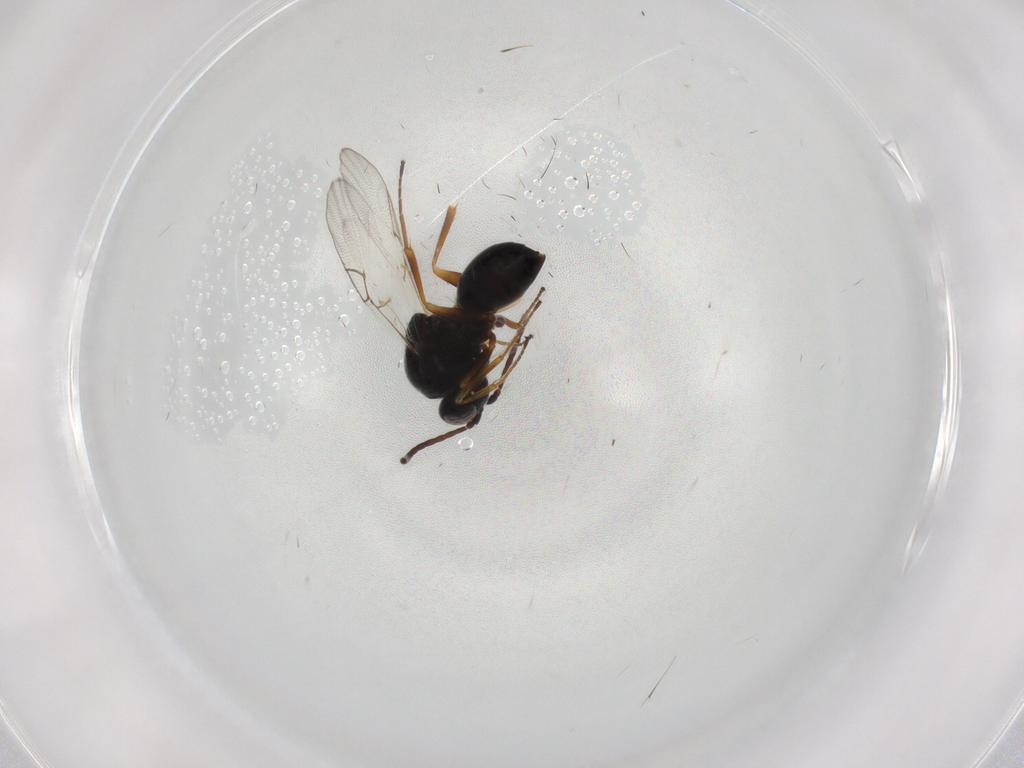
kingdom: Animalia
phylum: Arthropoda
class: Insecta
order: Hymenoptera
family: Figitidae
